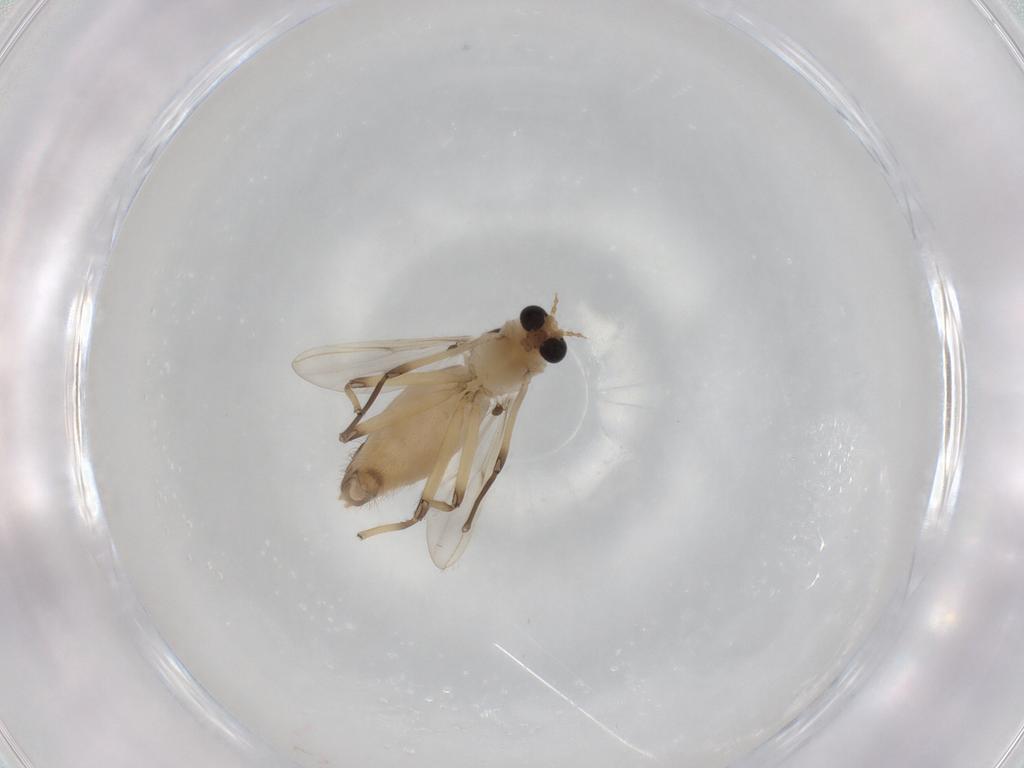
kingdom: Animalia
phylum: Arthropoda
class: Insecta
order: Diptera
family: Chironomidae
